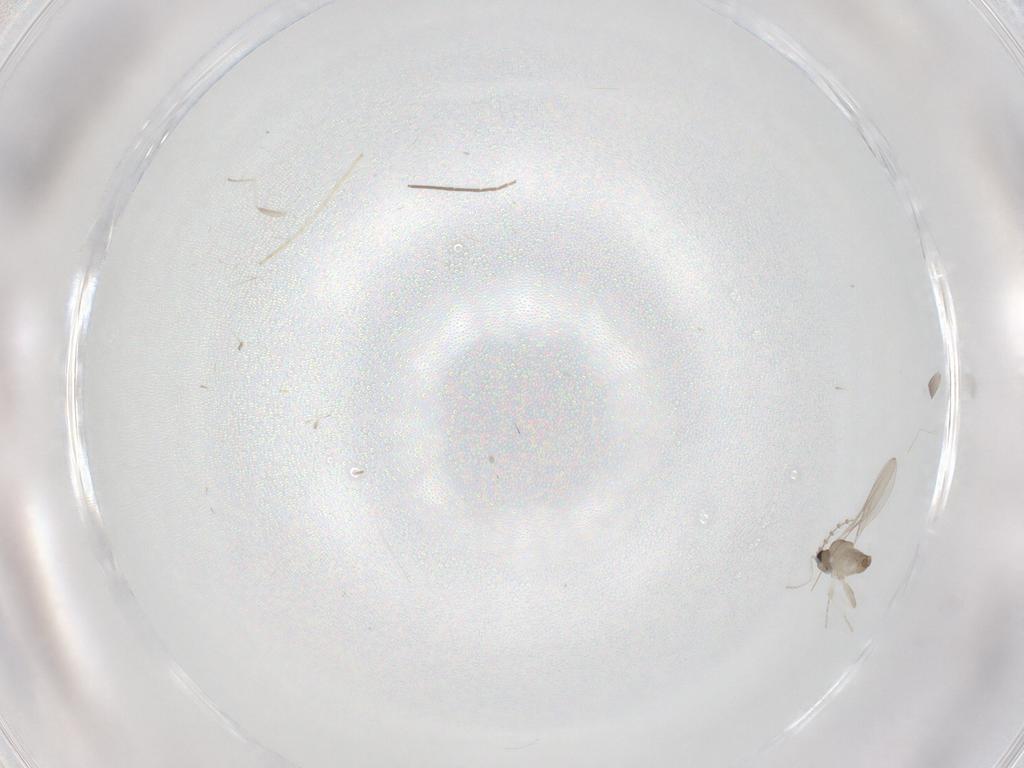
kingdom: Animalia
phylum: Arthropoda
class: Insecta
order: Diptera
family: Cecidomyiidae
